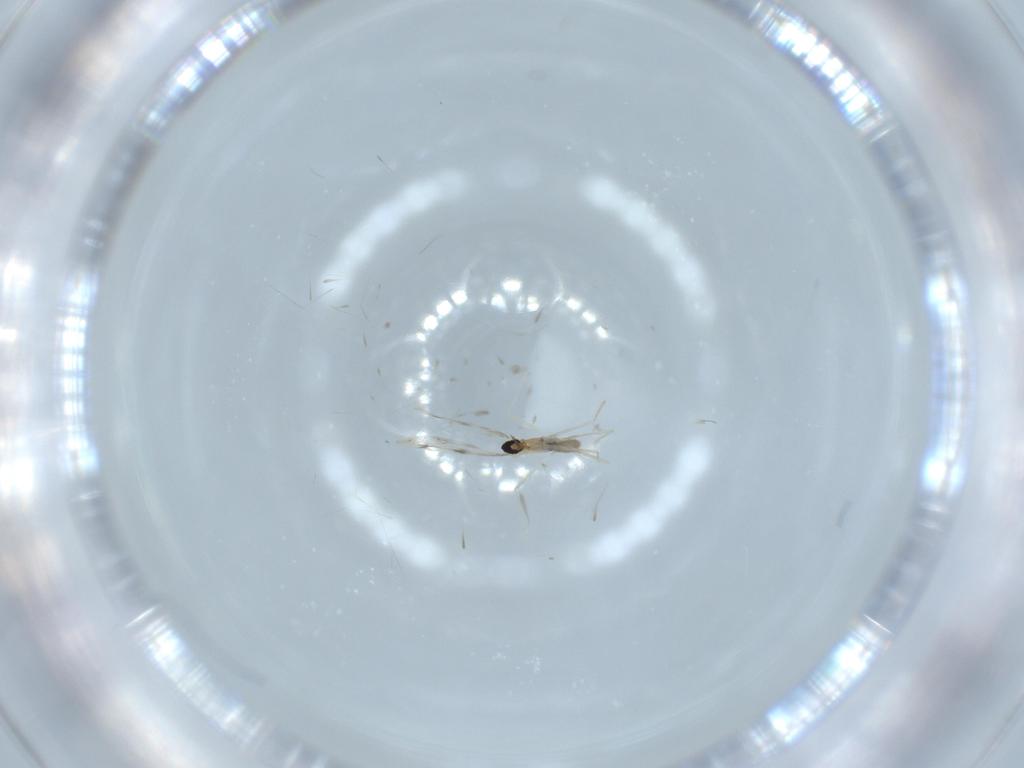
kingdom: Animalia
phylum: Arthropoda
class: Insecta
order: Diptera
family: Cecidomyiidae
